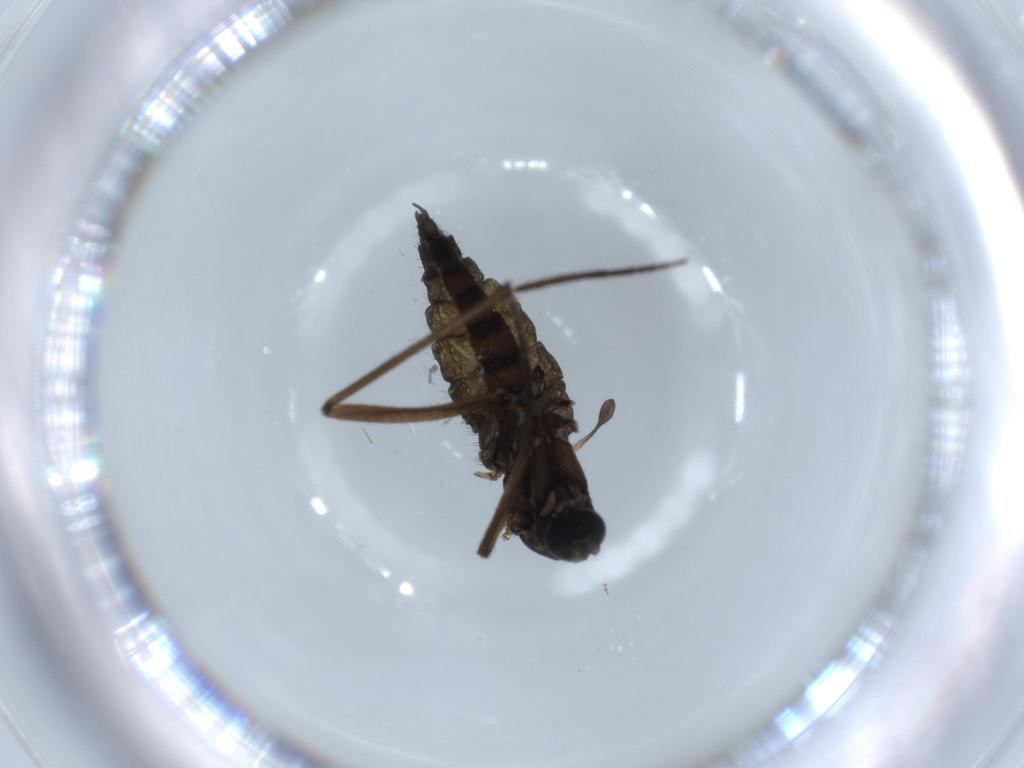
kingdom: Animalia
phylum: Arthropoda
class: Insecta
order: Diptera
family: Sciaridae
